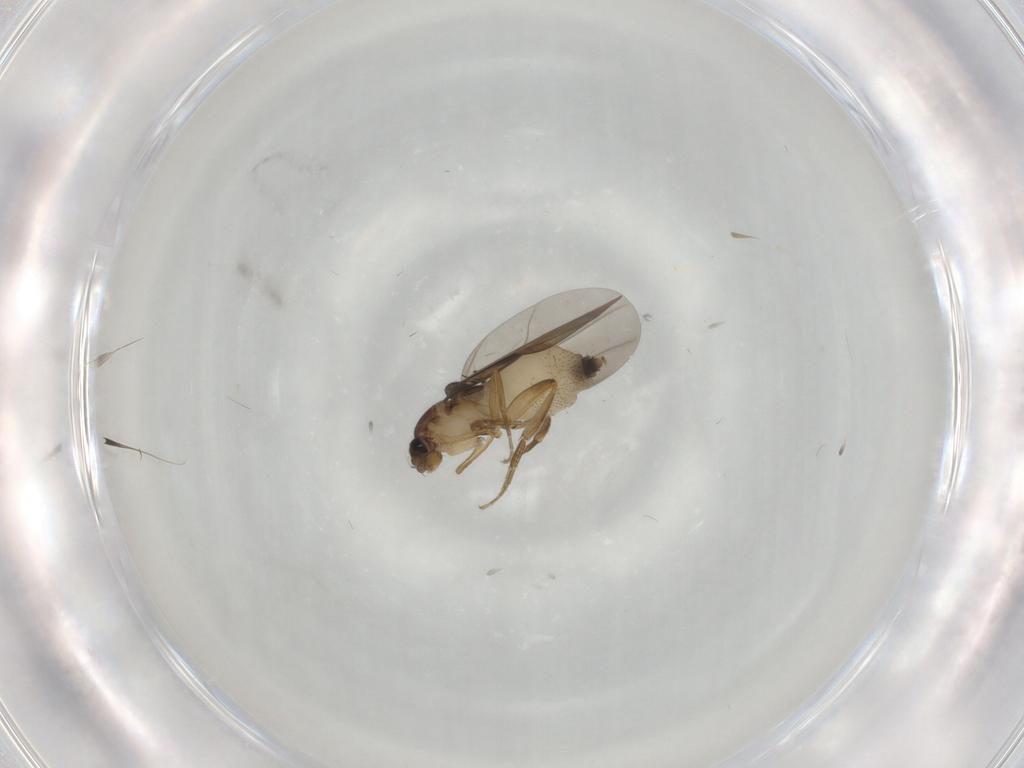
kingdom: Animalia
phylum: Arthropoda
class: Insecta
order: Diptera
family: Phoridae
